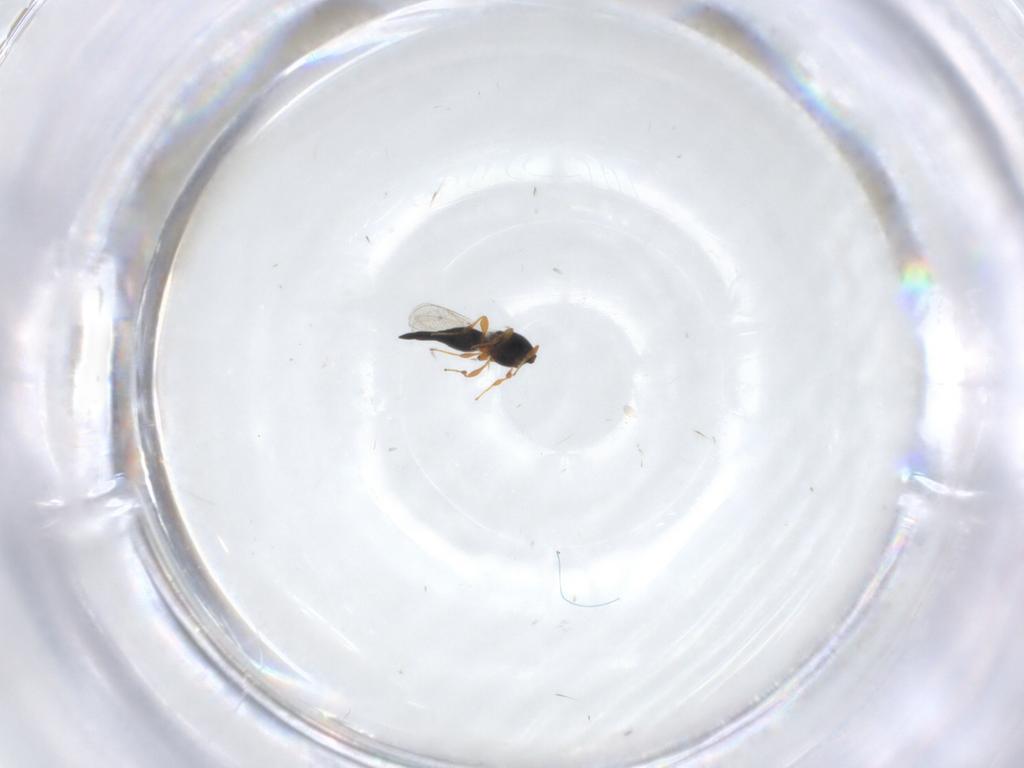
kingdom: Animalia
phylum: Arthropoda
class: Insecta
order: Hymenoptera
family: Platygastridae
